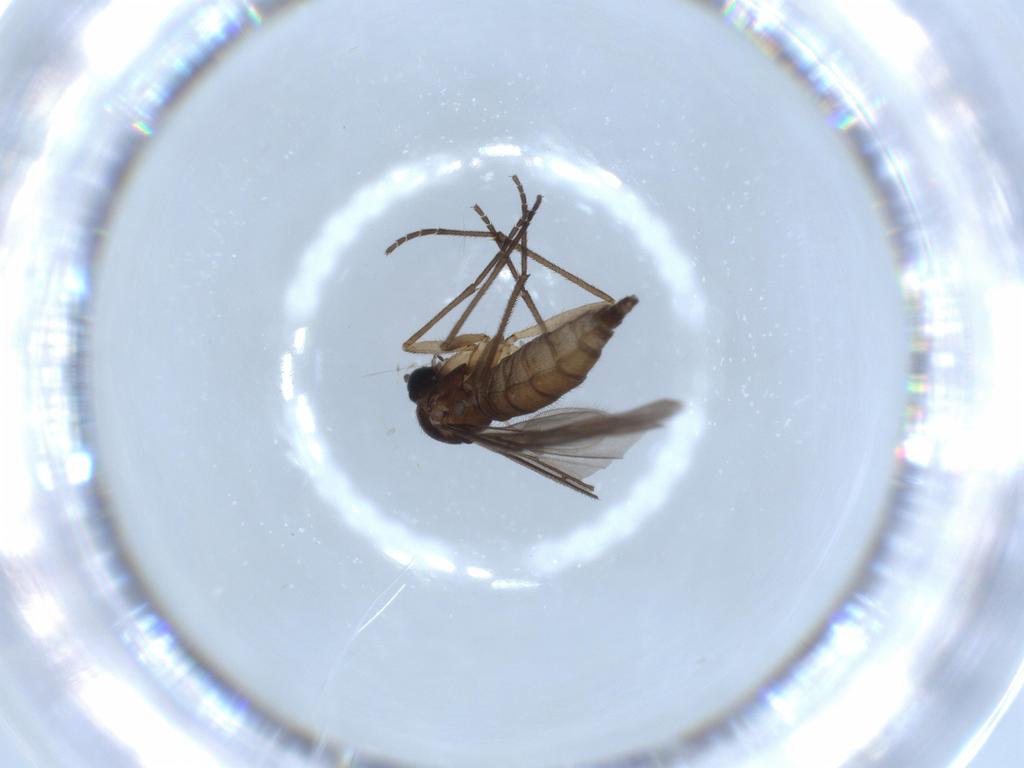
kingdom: Animalia
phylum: Arthropoda
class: Insecta
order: Diptera
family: Sciaridae
